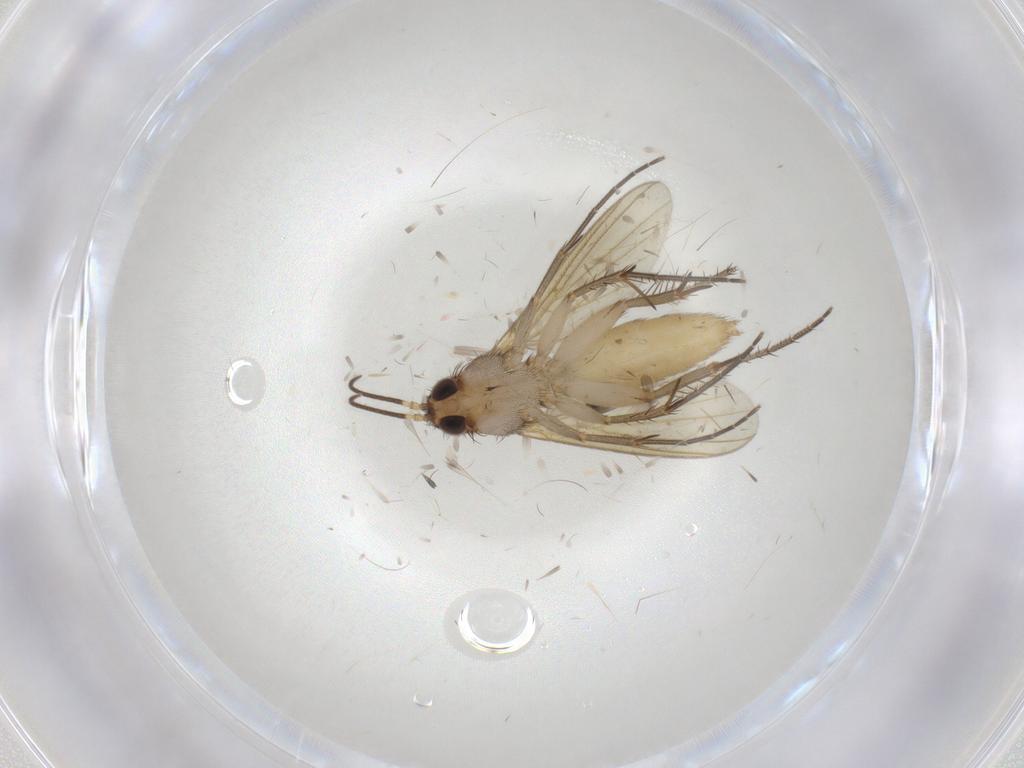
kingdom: Animalia
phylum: Arthropoda
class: Insecta
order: Diptera
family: Mycetophilidae
